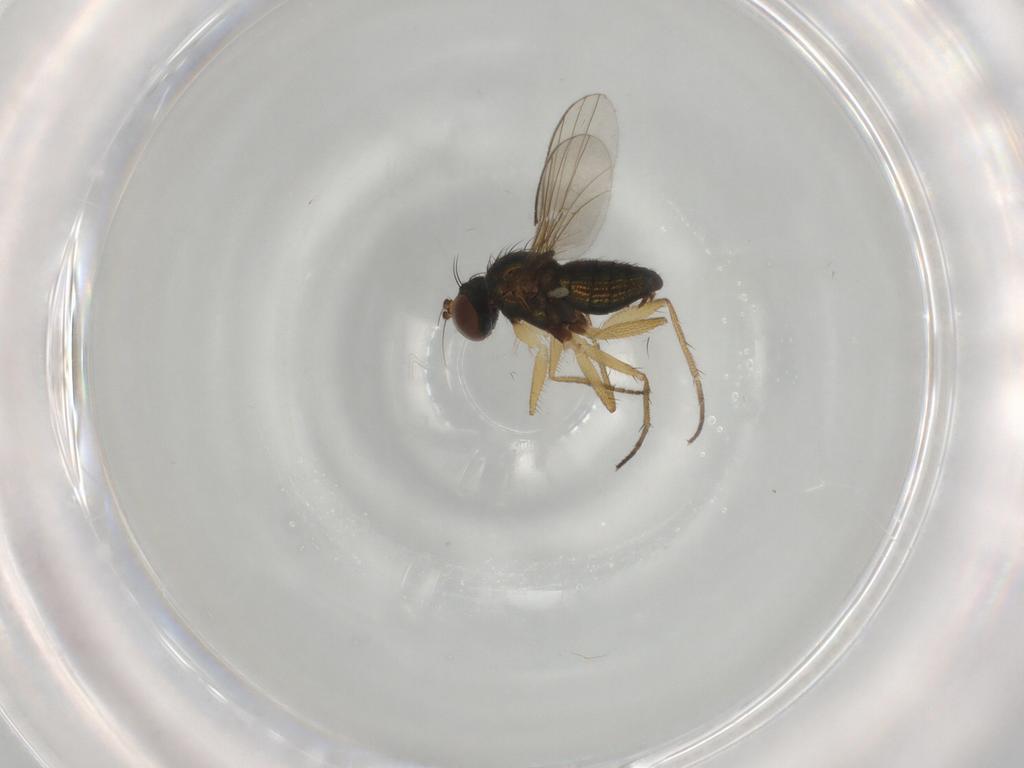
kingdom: Animalia
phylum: Arthropoda
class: Insecta
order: Diptera
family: Dolichopodidae
